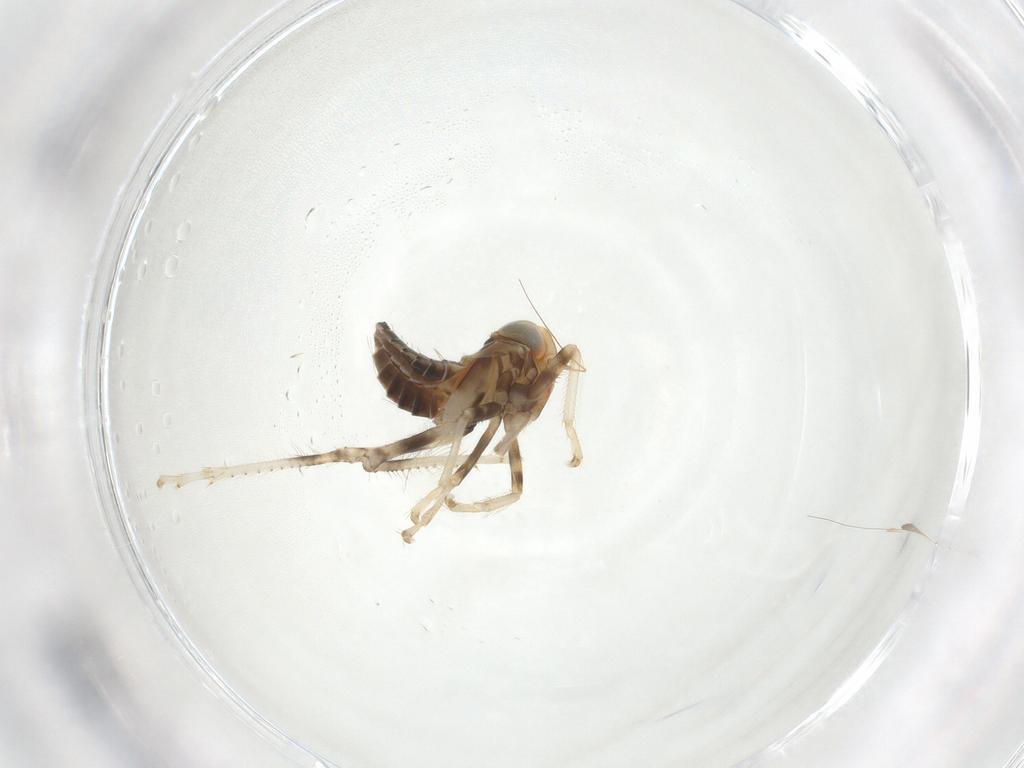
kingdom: Animalia
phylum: Arthropoda
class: Insecta
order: Hemiptera
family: Cicadellidae
